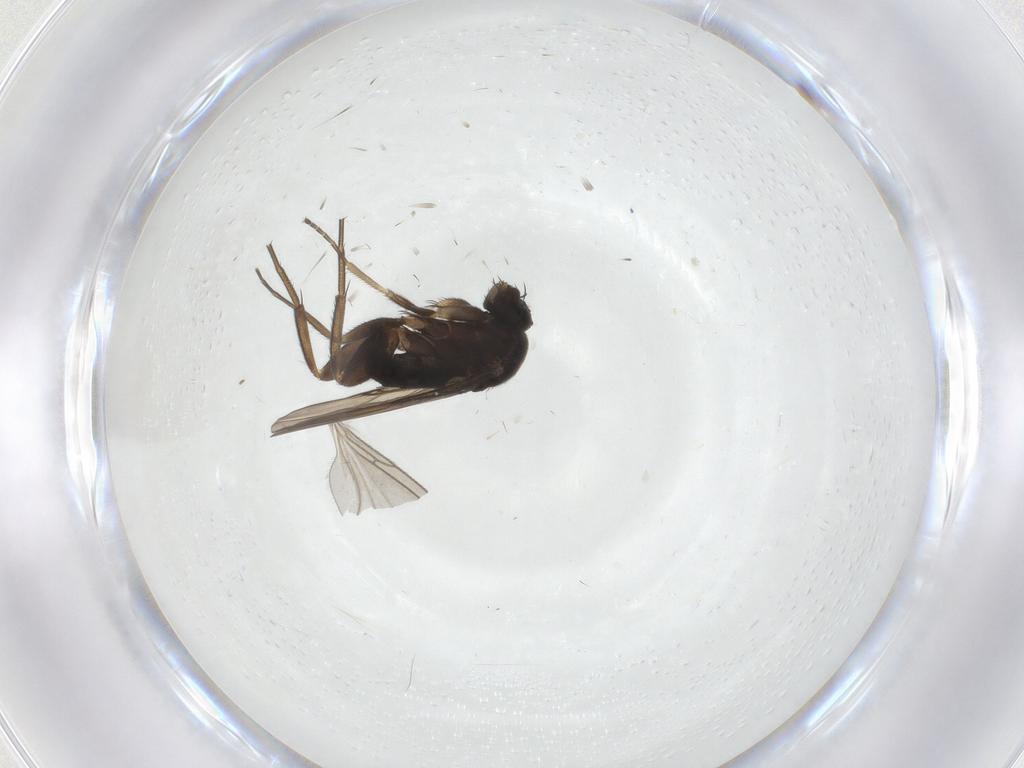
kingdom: Animalia
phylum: Arthropoda
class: Insecta
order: Diptera
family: Phoridae
